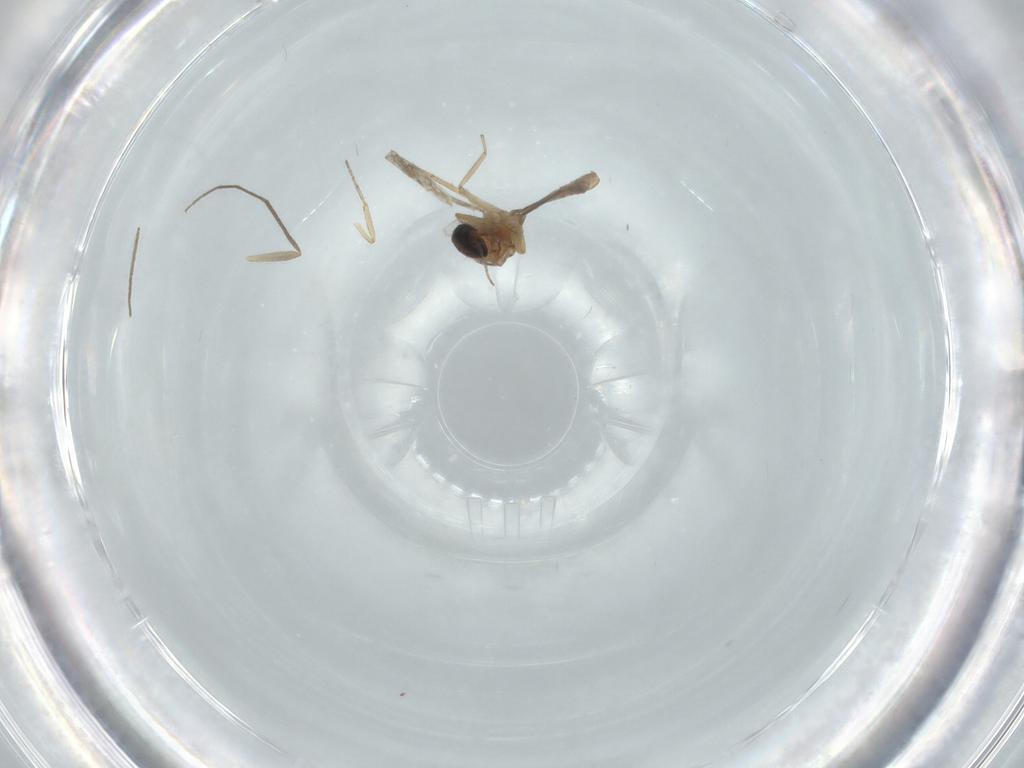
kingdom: Animalia
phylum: Arthropoda
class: Insecta
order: Diptera
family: Chironomidae
